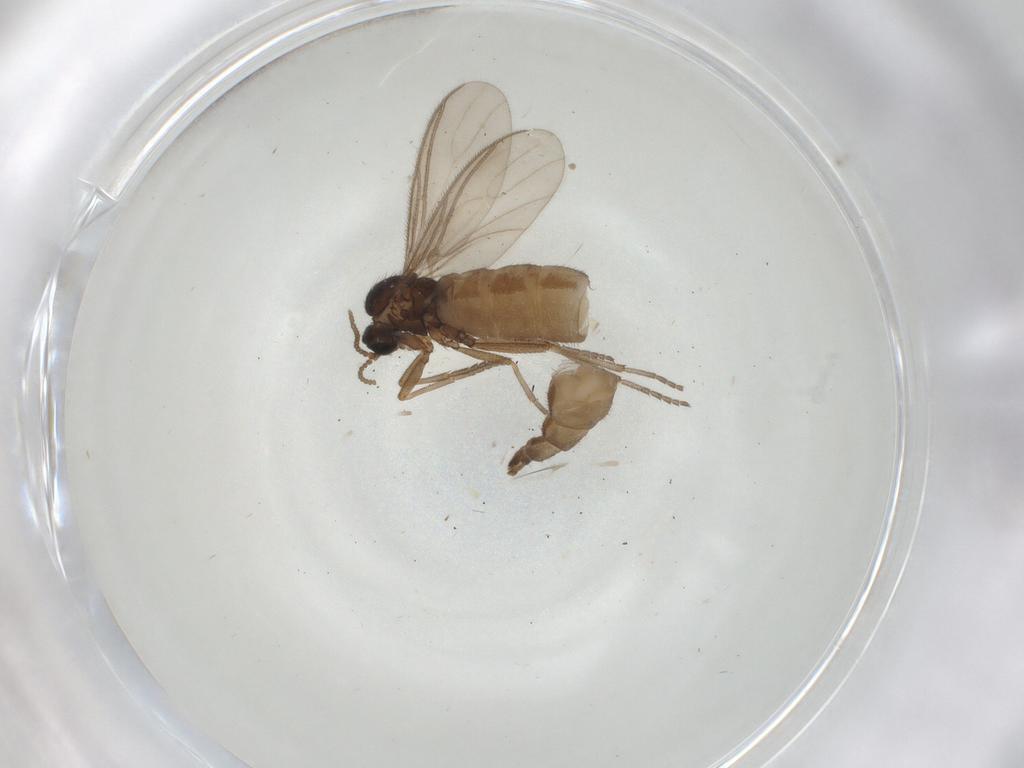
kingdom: Animalia
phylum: Arthropoda
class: Insecta
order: Diptera
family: Sciaridae
